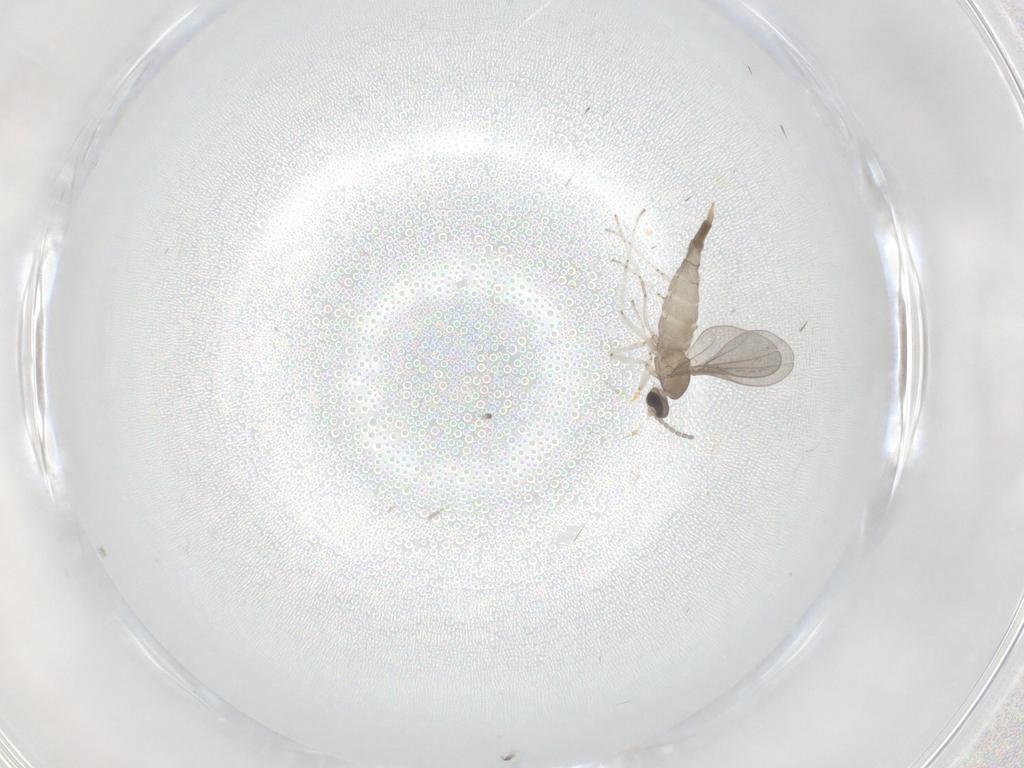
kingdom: Animalia
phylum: Arthropoda
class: Insecta
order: Diptera
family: Cecidomyiidae
